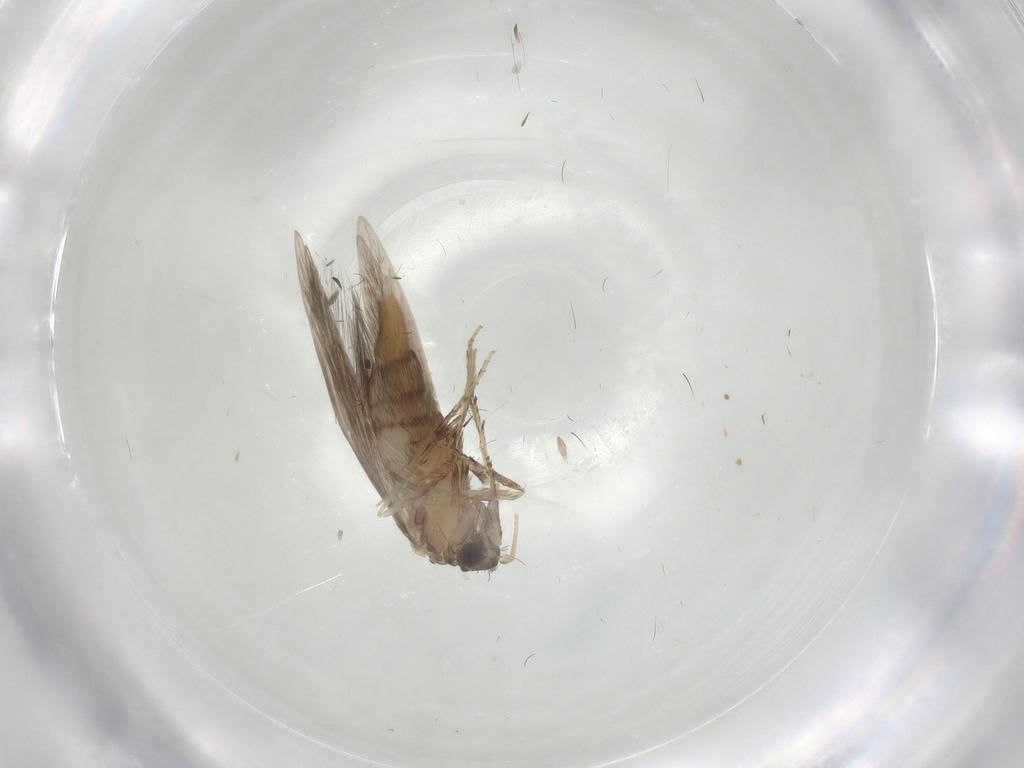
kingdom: Animalia
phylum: Arthropoda
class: Insecta
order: Trichoptera
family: Hydroptilidae
